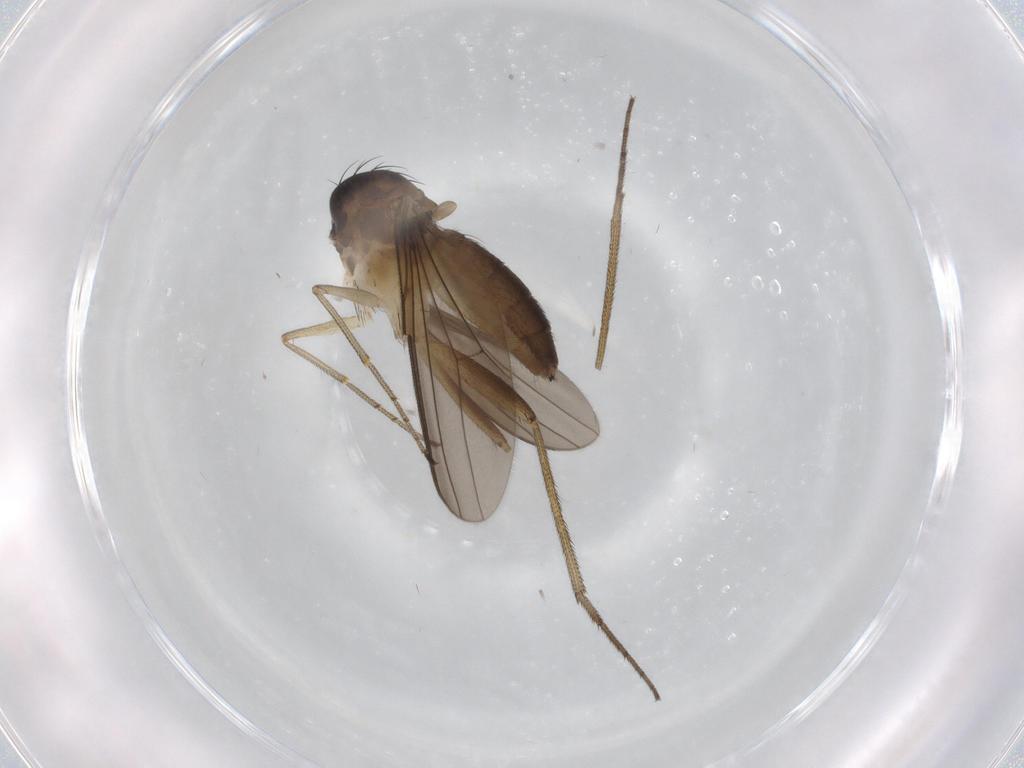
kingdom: Animalia
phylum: Arthropoda
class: Insecta
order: Diptera
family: Dolichopodidae
